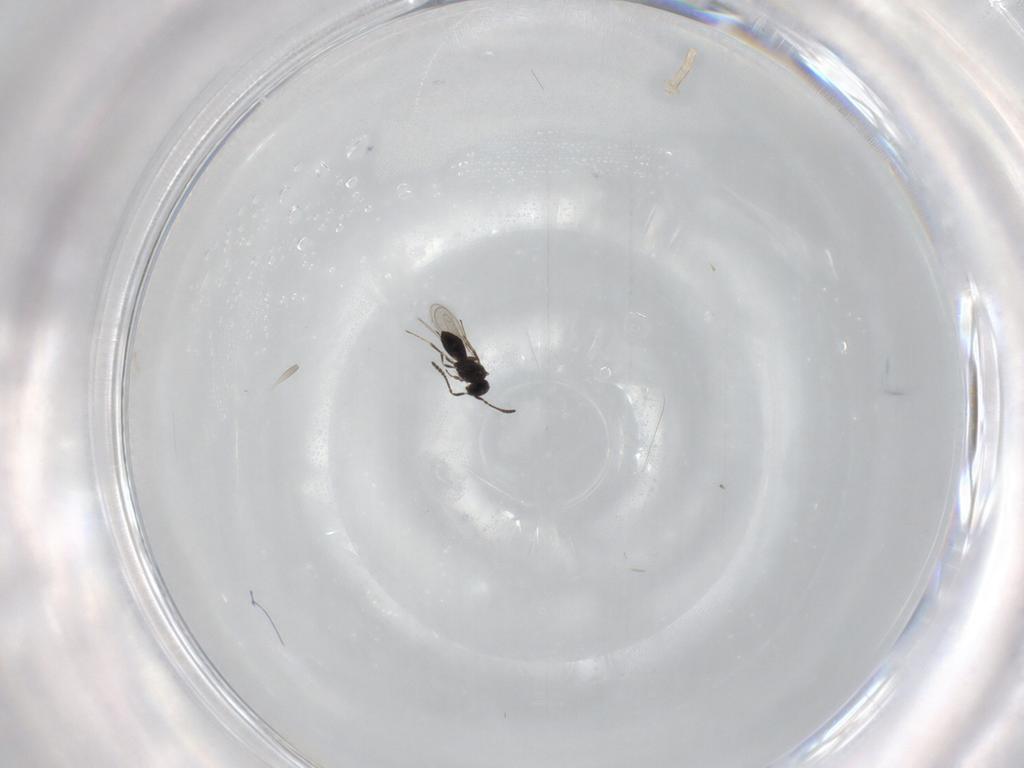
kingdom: Animalia
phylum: Arthropoda
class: Insecta
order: Hymenoptera
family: Scelionidae
